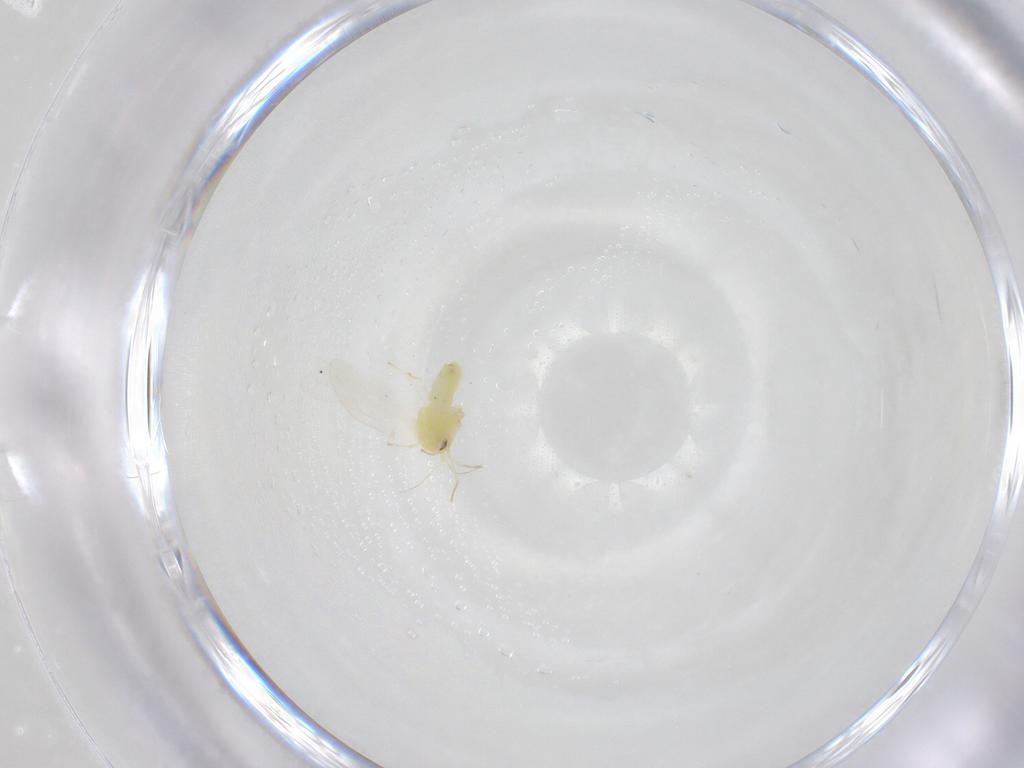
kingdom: Animalia
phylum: Arthropoda
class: Insecta
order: Hemiptera
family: Aleyrodidae
